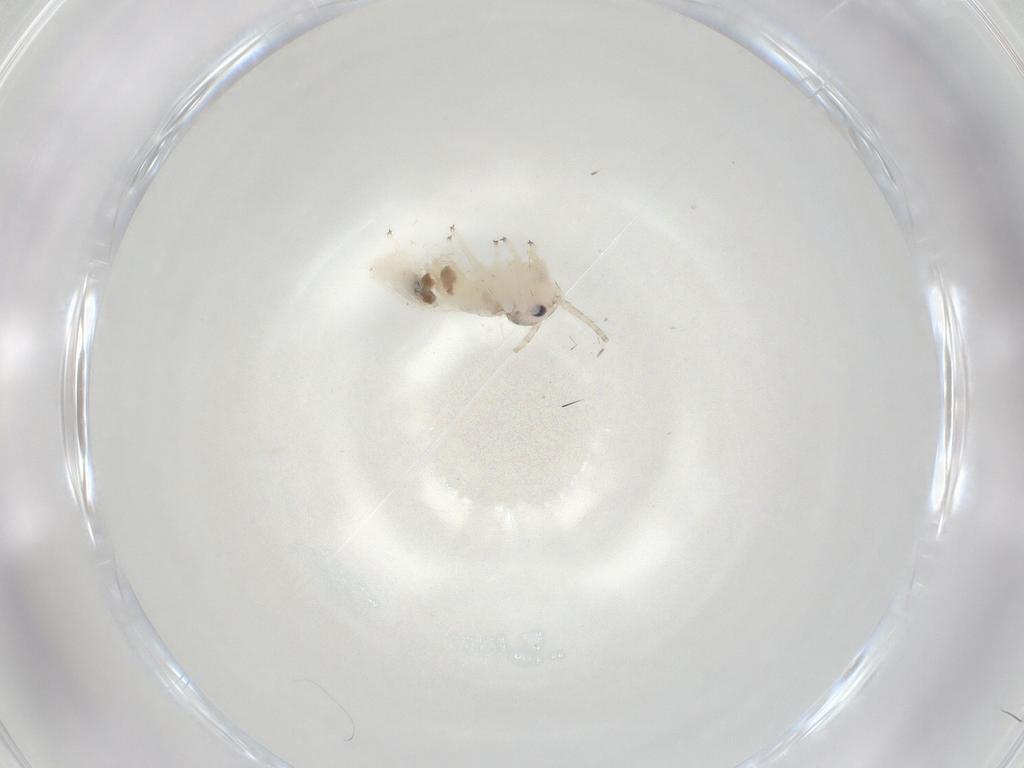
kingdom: Animalia
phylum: Arthropoda
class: Insecta
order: Psocodea
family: Amphipsocidae
